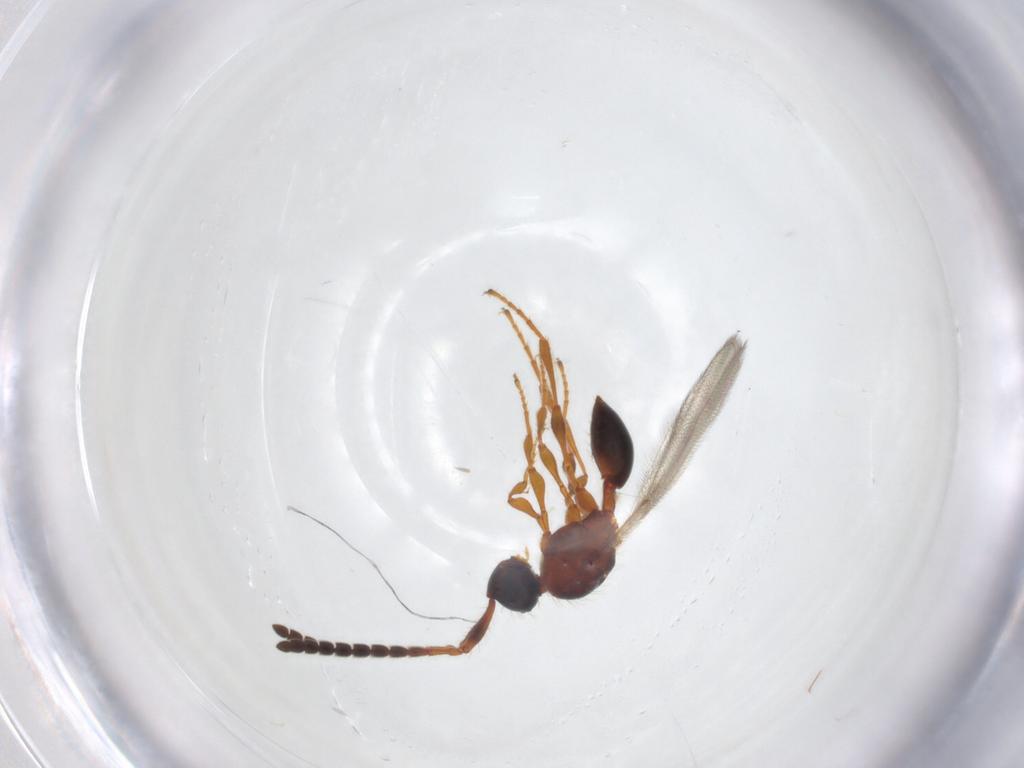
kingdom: Animalia
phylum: Arthropoda
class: Insecta
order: Hymenoptera
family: Diapriidae
